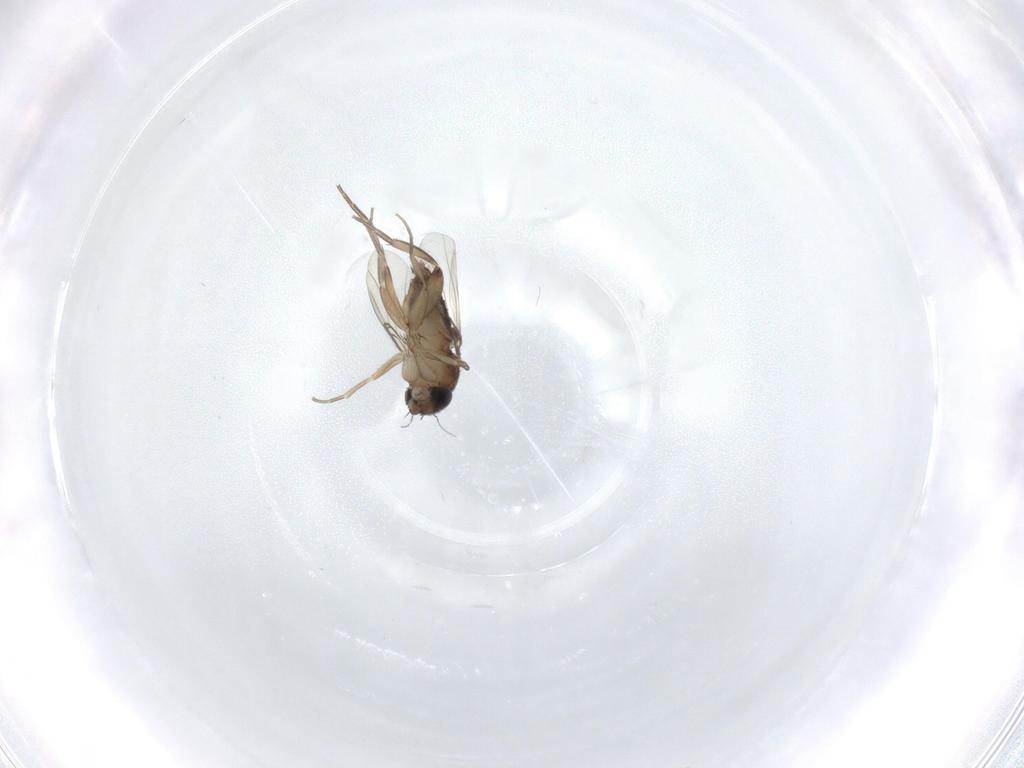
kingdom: Animalia
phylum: Arthropoda
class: Insecta
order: Diptera
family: Phoridae
